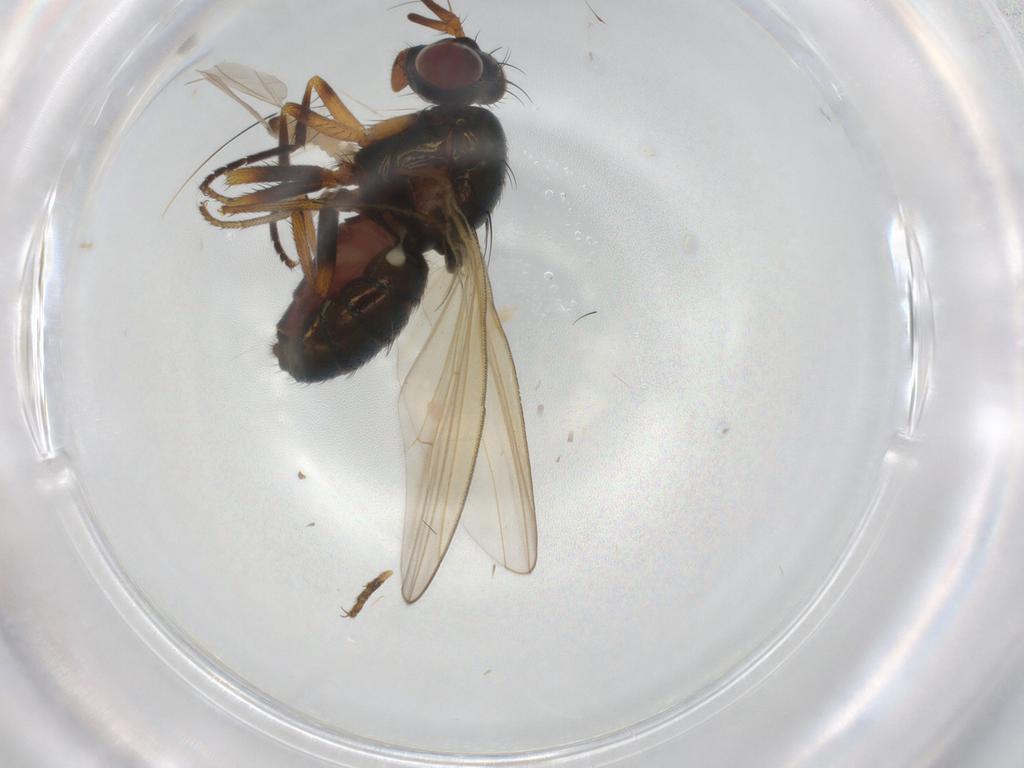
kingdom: Animalia
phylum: Arthropoda
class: Insecta
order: Diptera
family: Lauxaniidae
